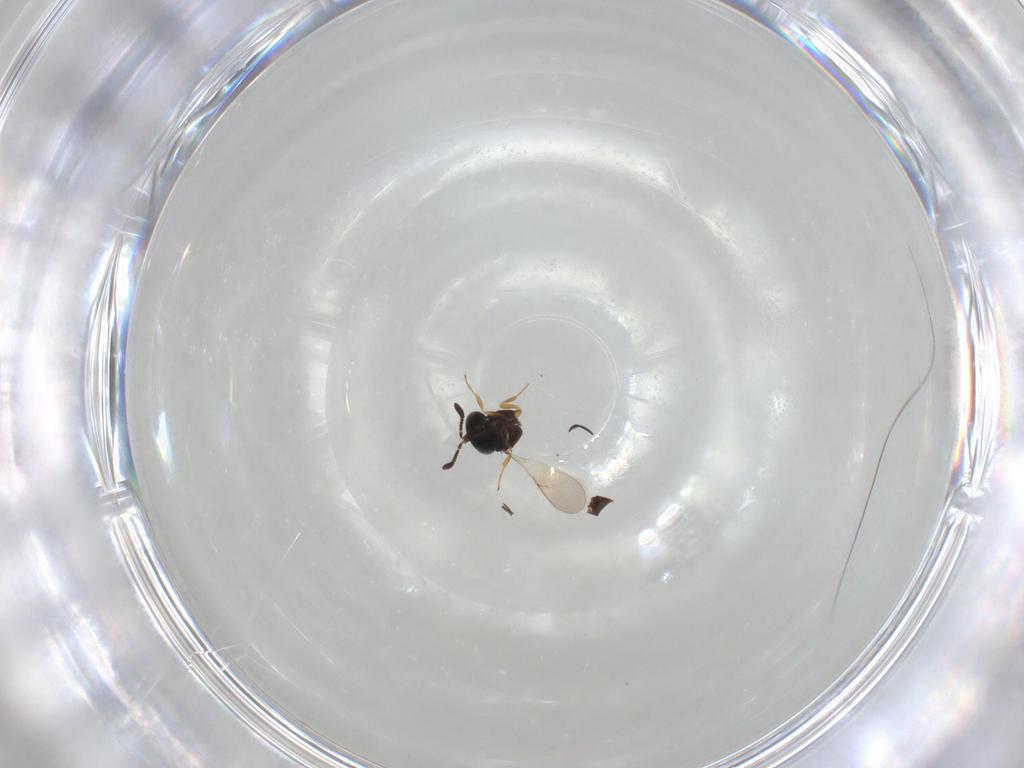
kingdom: Animalia
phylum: Arthropoda
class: Insecta
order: Hymenoptera
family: Scelionidae
